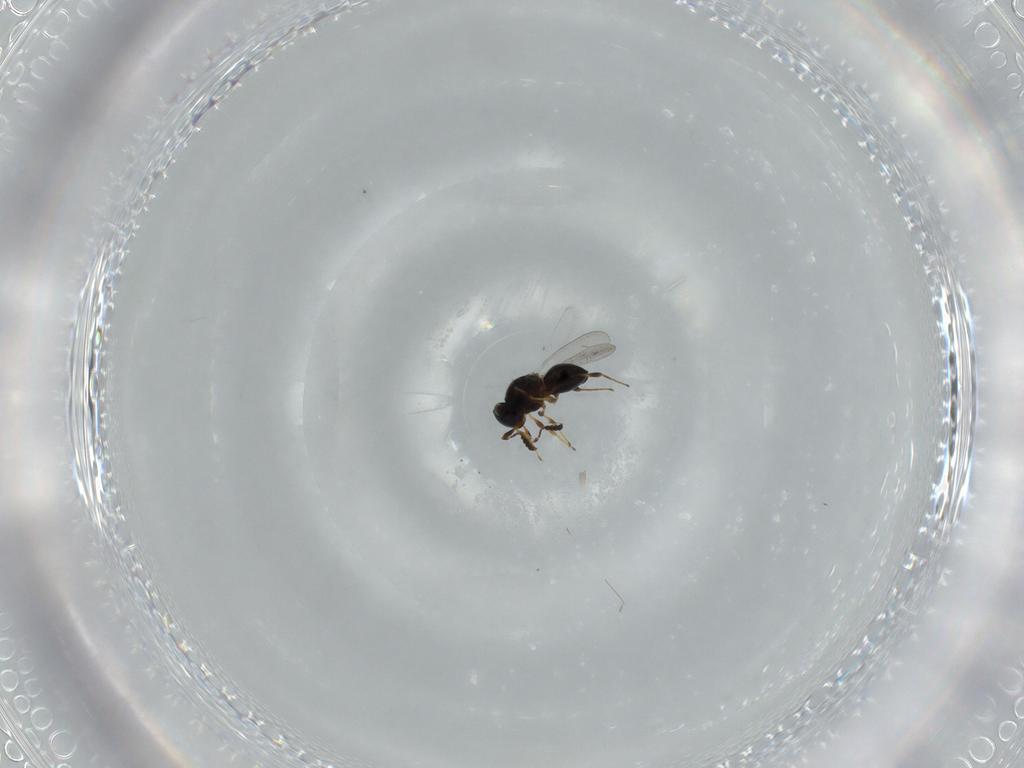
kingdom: Animalia
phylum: Arthropoda
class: Insecta
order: Hymenoptera
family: Platygastridae
